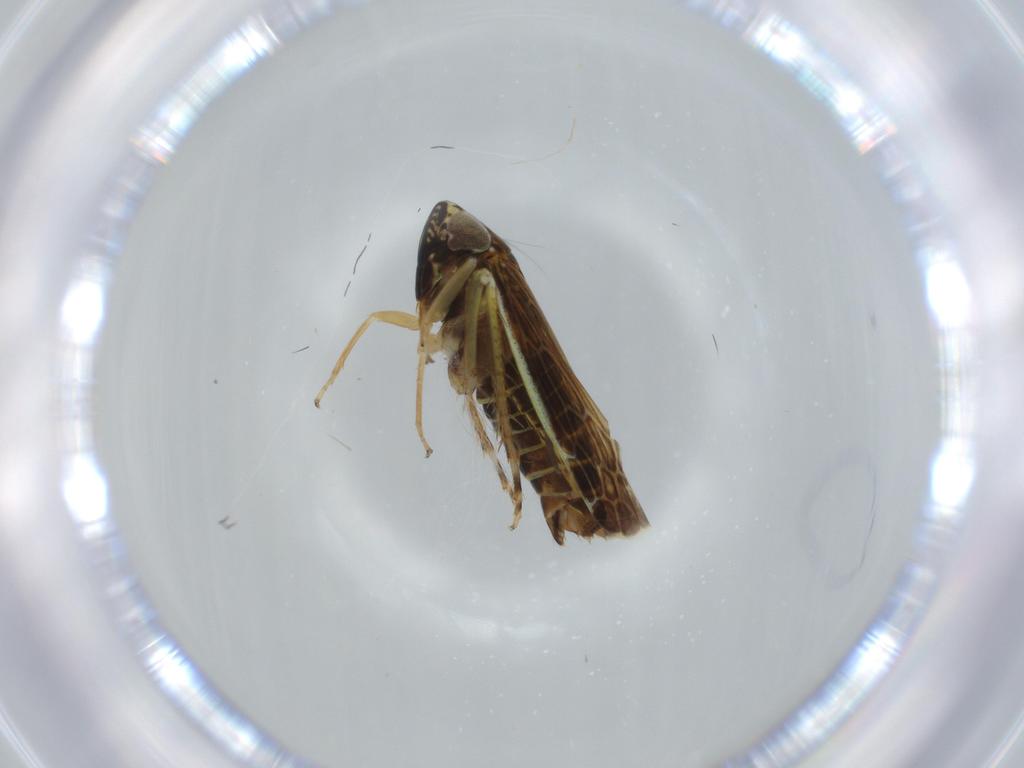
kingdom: Animalia
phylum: Arthropoda
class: Insecta
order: Hemiptera
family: Cicadellidae
